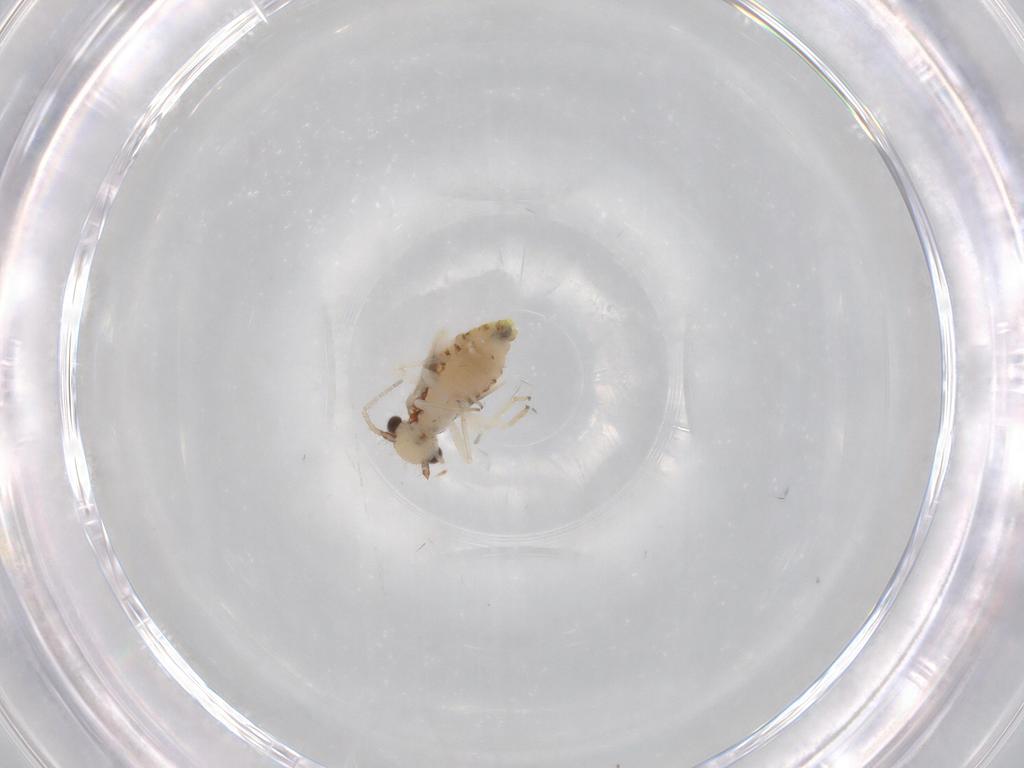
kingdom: Animalia
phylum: Arthropoda
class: Insecta
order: Psocodea
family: Caeciliusidae
